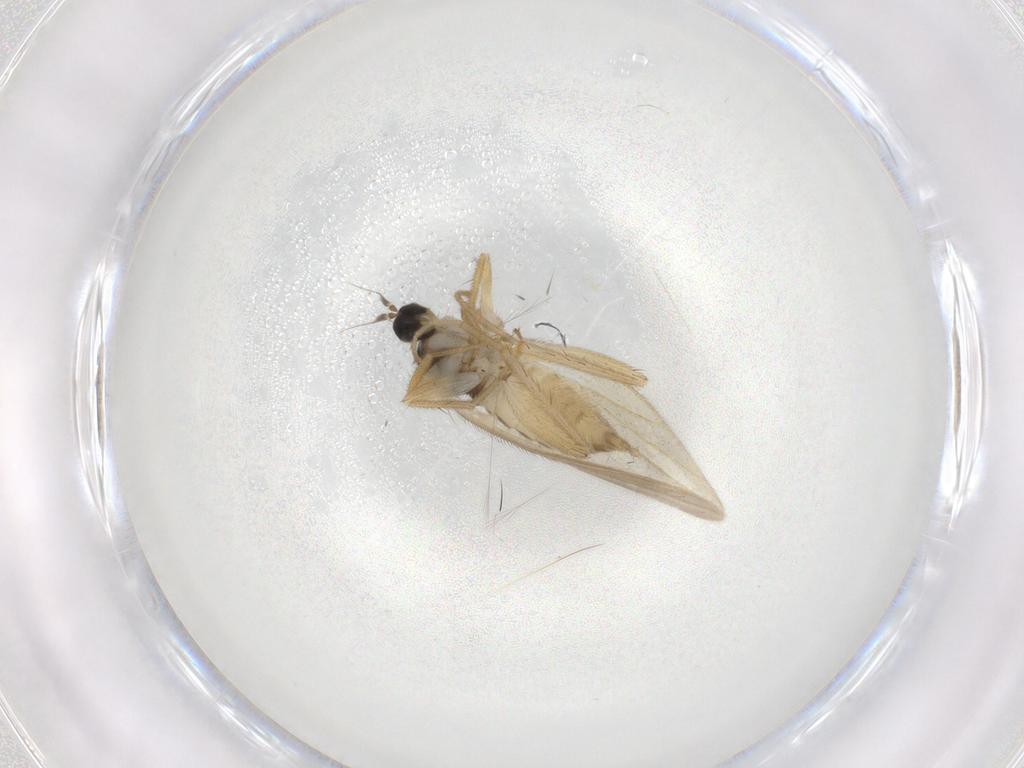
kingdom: Animalia
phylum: Arthropoda
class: Insecta
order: Diptera
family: Hybotidae
